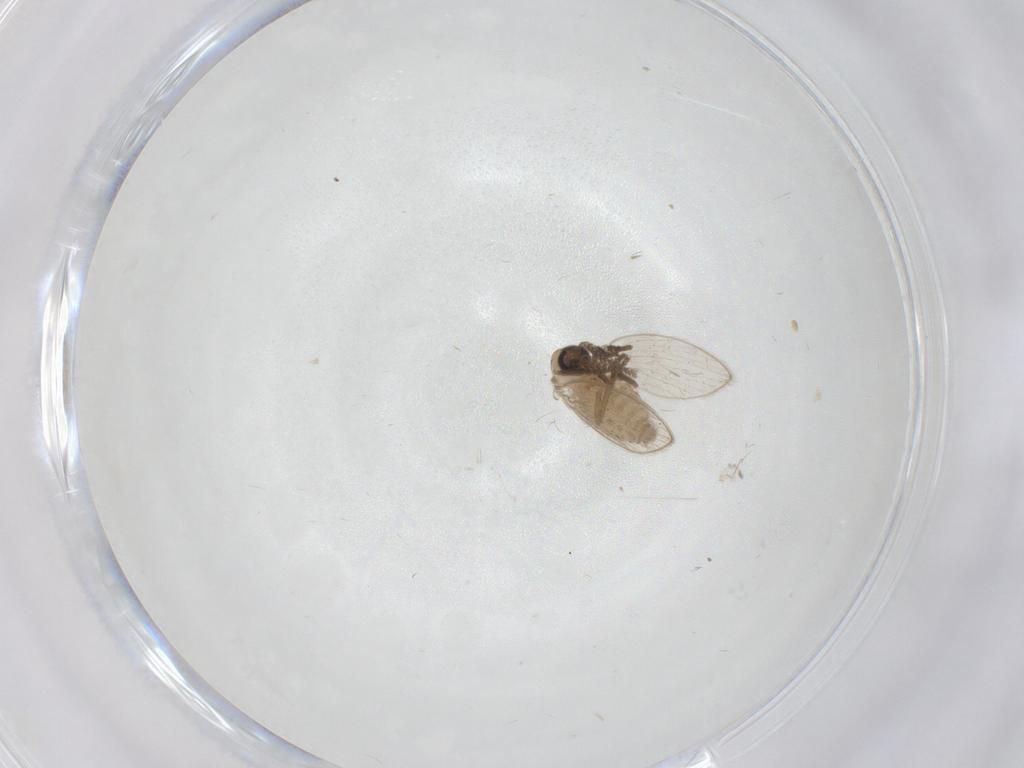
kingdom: Animalia
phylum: Arthropoda
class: Insecta
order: Diptera
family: Psychodidae
